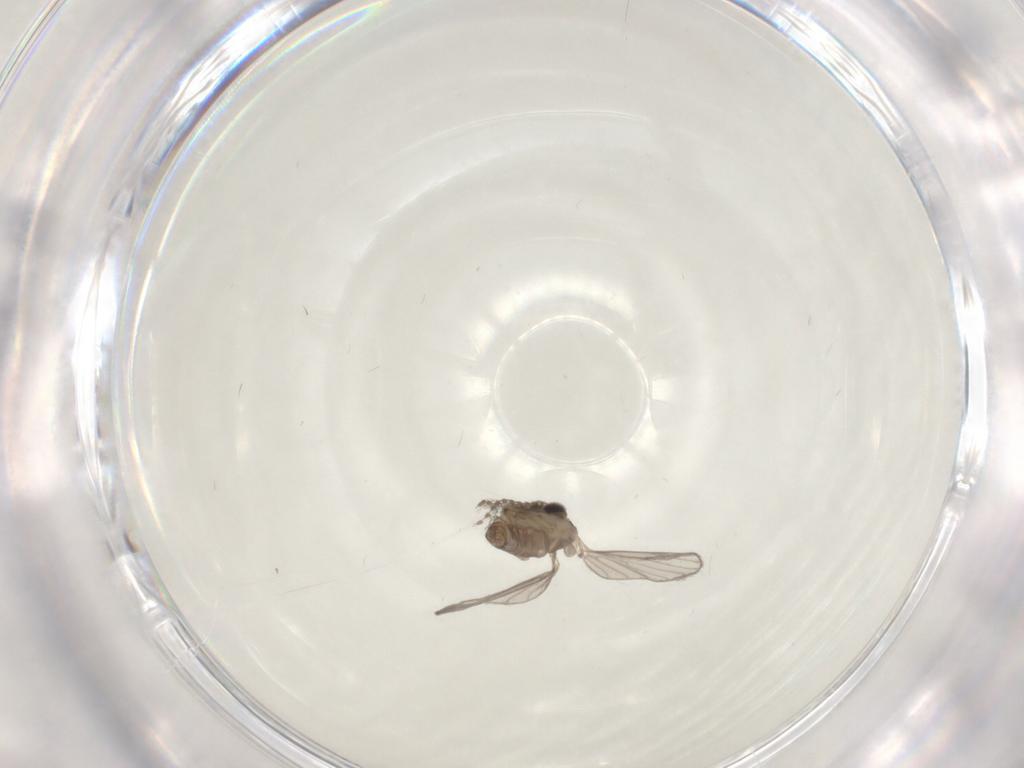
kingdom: Animalia
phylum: Arthropoda
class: Insecta
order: Diptera
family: Psychodidae
